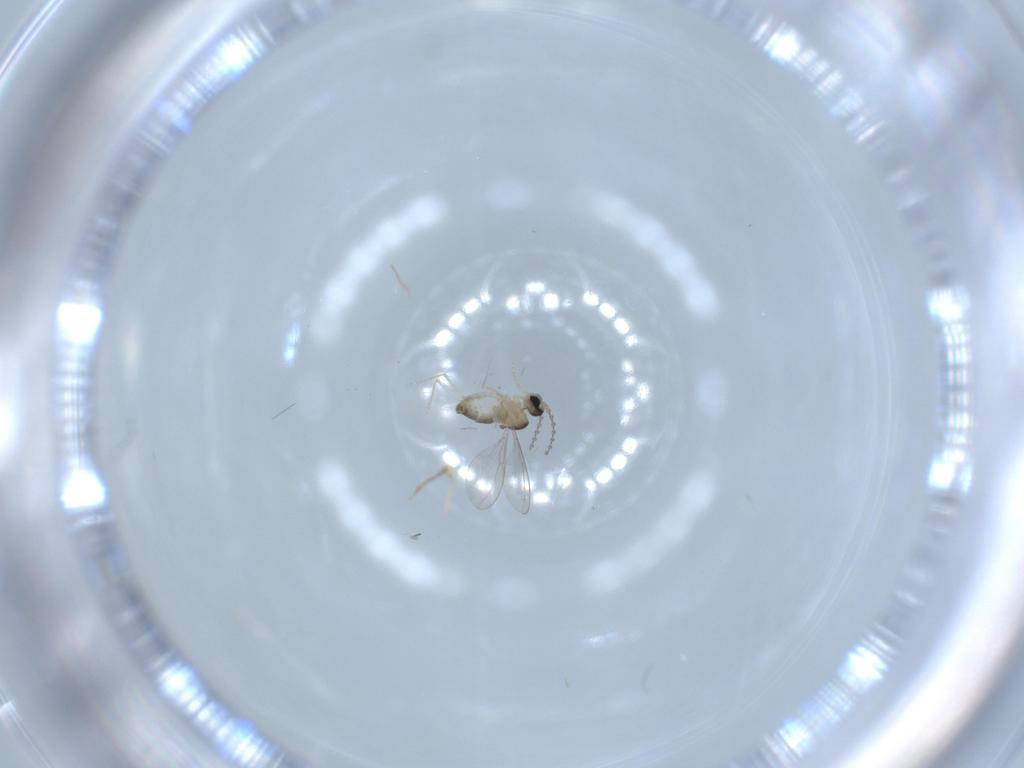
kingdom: Animalia
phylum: Arthropoda
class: Insecta
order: Diptera
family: Cecidomyiidae
